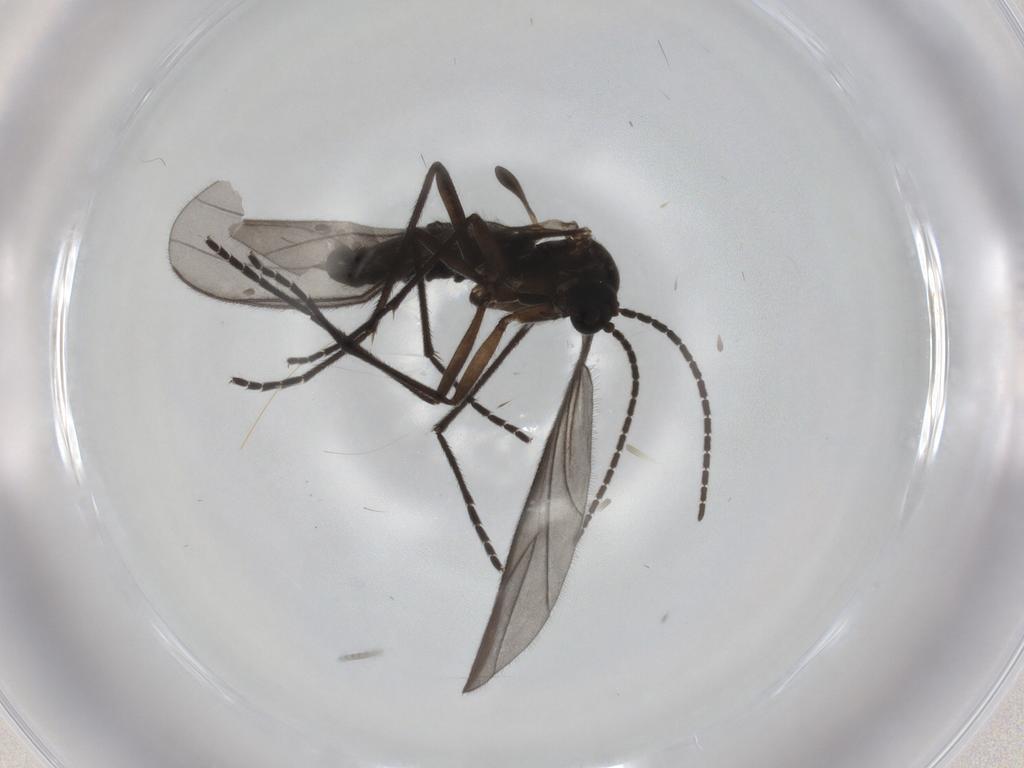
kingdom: Animalia
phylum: Arthropoda
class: Insecta
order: Diptera
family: Sciaridae
